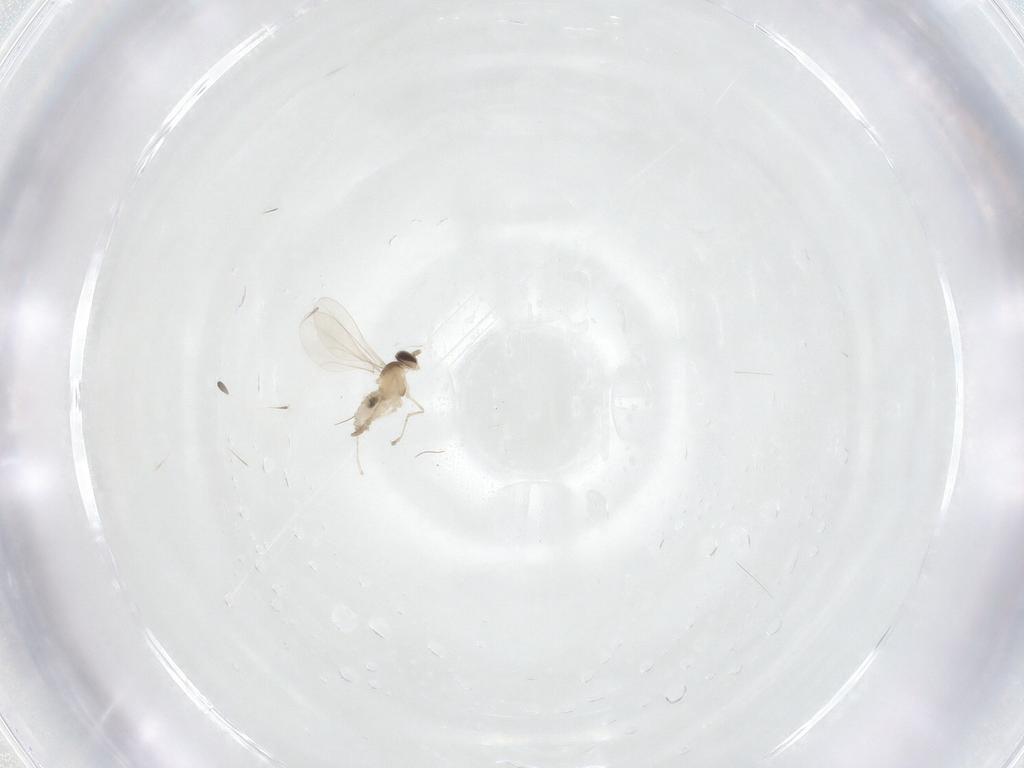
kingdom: Animalia
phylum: Arthropoda
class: Insecta
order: Diptera
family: Cecidomyiidae
